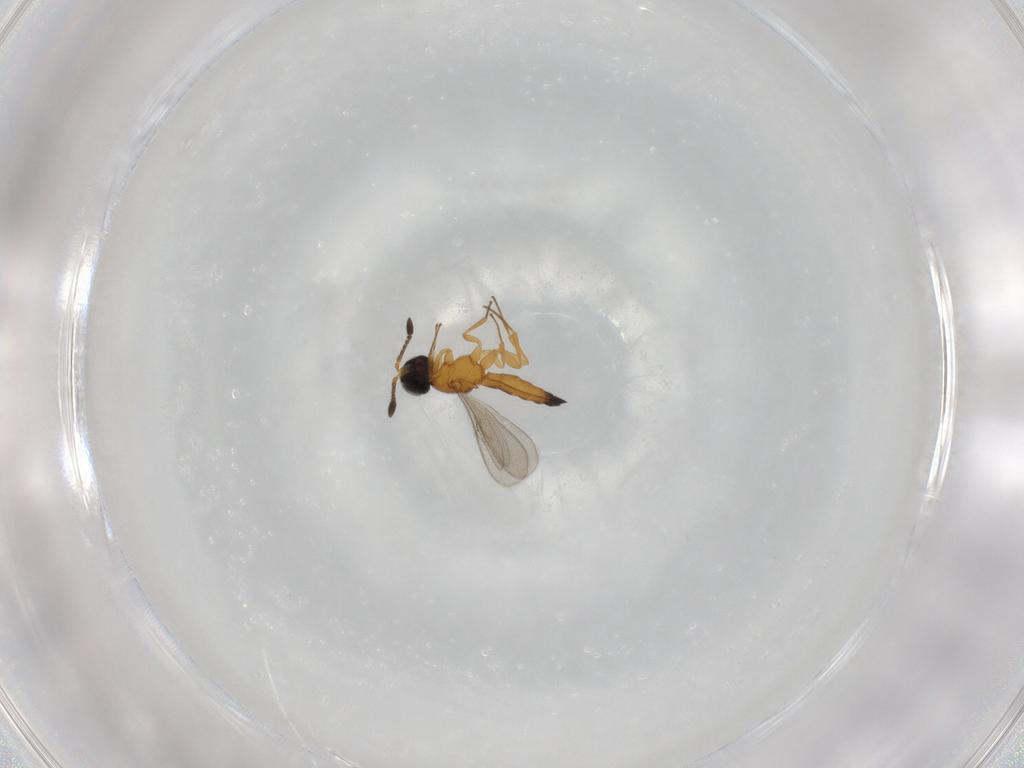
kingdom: Animalia
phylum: Arthropoda
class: Insecta
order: Hymenoptera
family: Scelionidae
